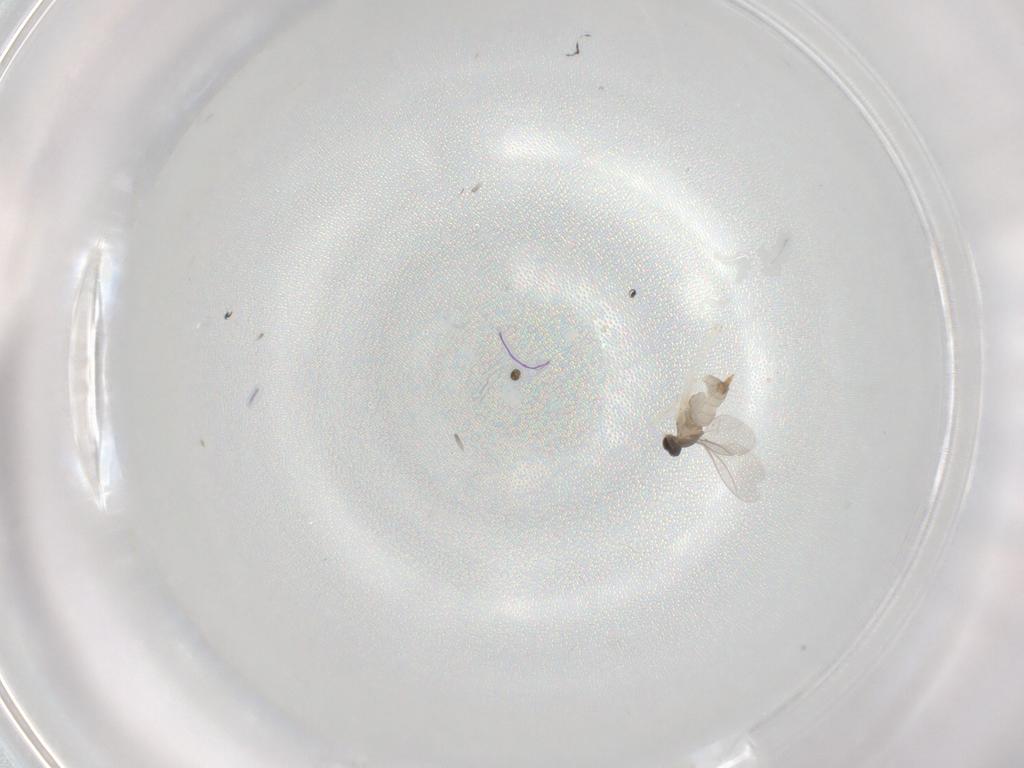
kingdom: Animalia
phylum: Arthropoda
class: Insecta
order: Diptera
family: Cecidomyiidae
